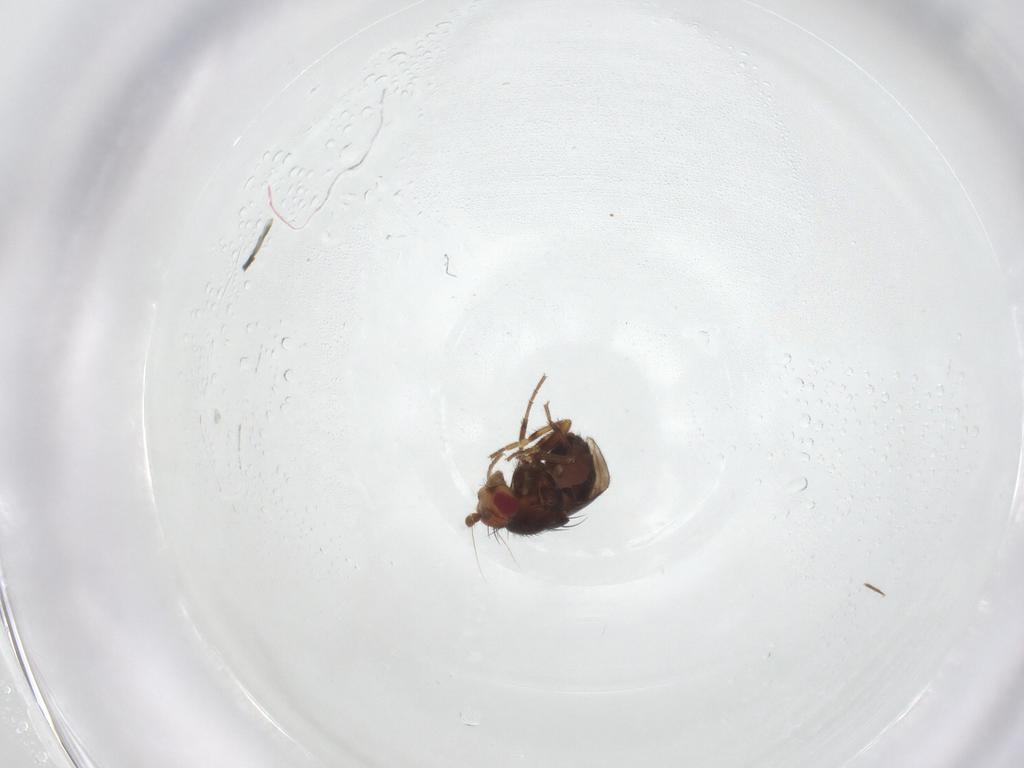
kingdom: Animalia
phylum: Arthropoda
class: Insecta
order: Diptera
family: Sphaeroceridae
